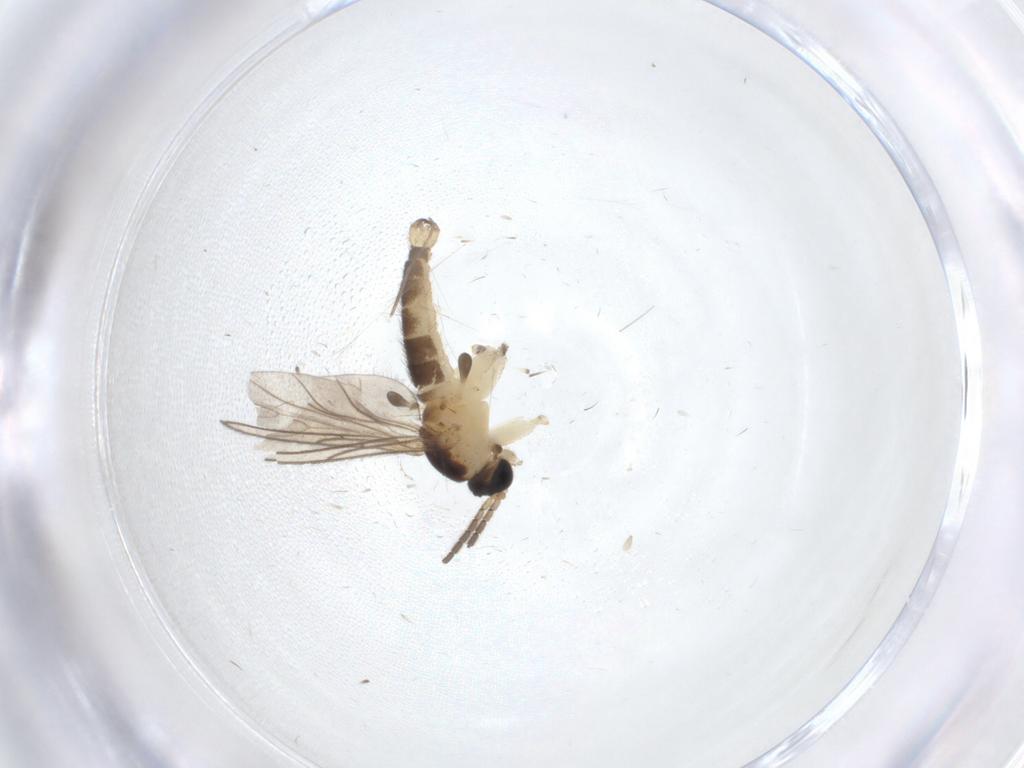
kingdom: Animalia
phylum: Arthropoda
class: Insecta
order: Diptera
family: Sciaridae
